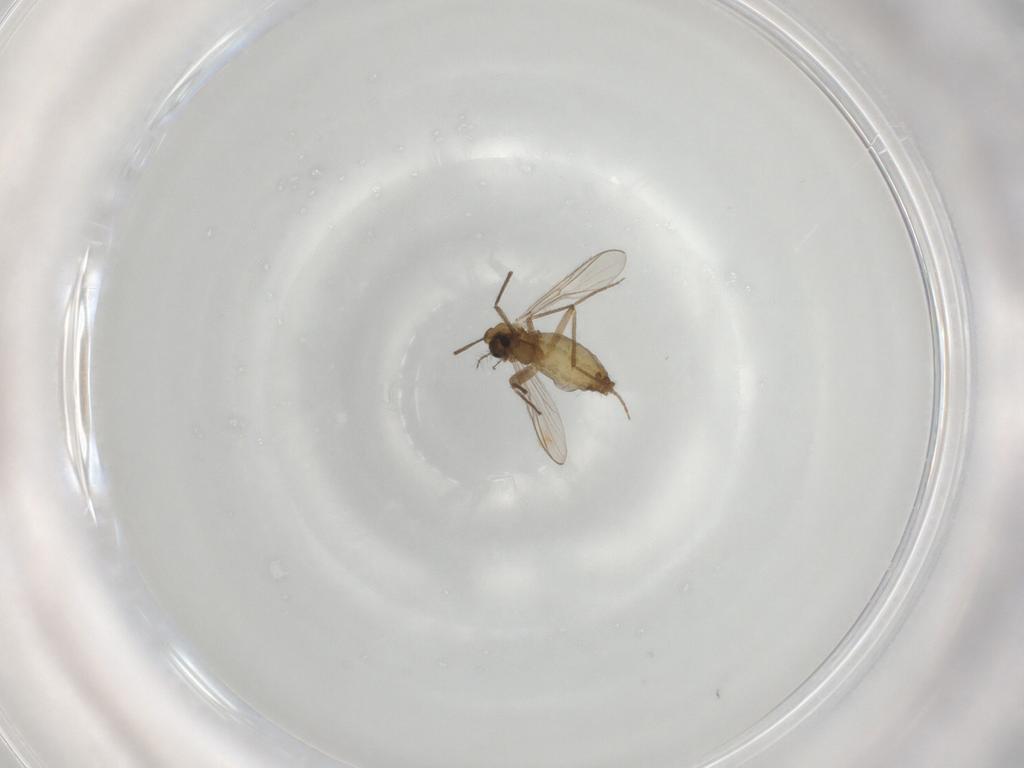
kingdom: Animalia
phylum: Arthropoda
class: Insecta
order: Diptera
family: Chironomidae
